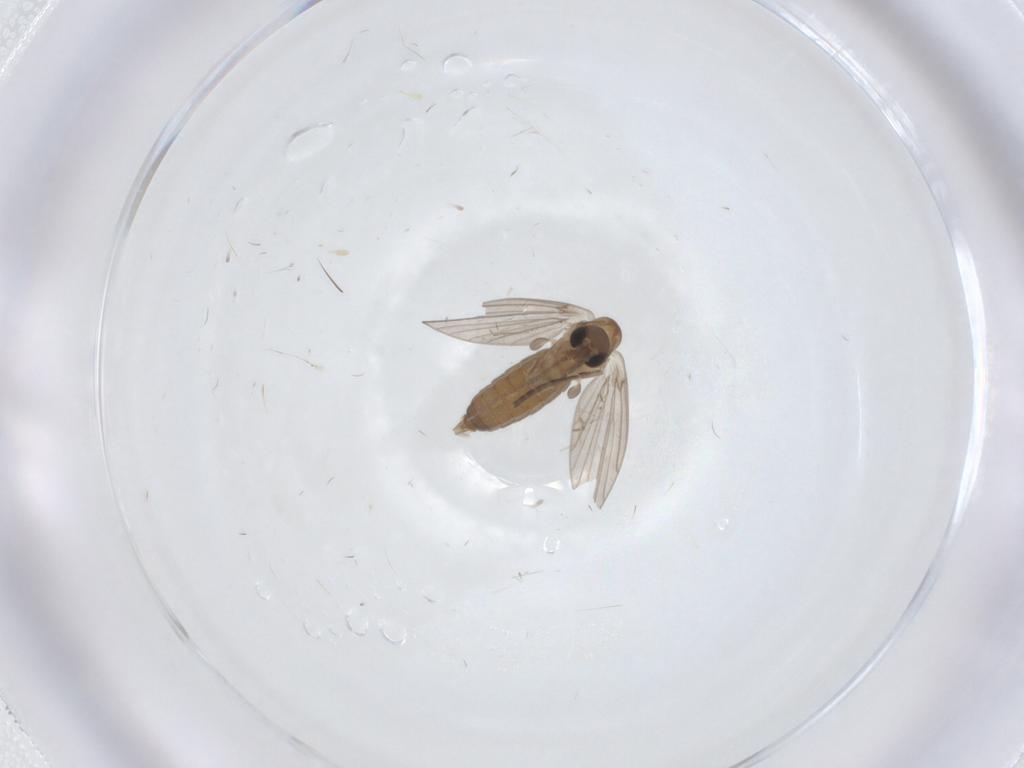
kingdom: Animalia
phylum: Arthropoda
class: Insecta
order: Diptera
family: Sciaridae
